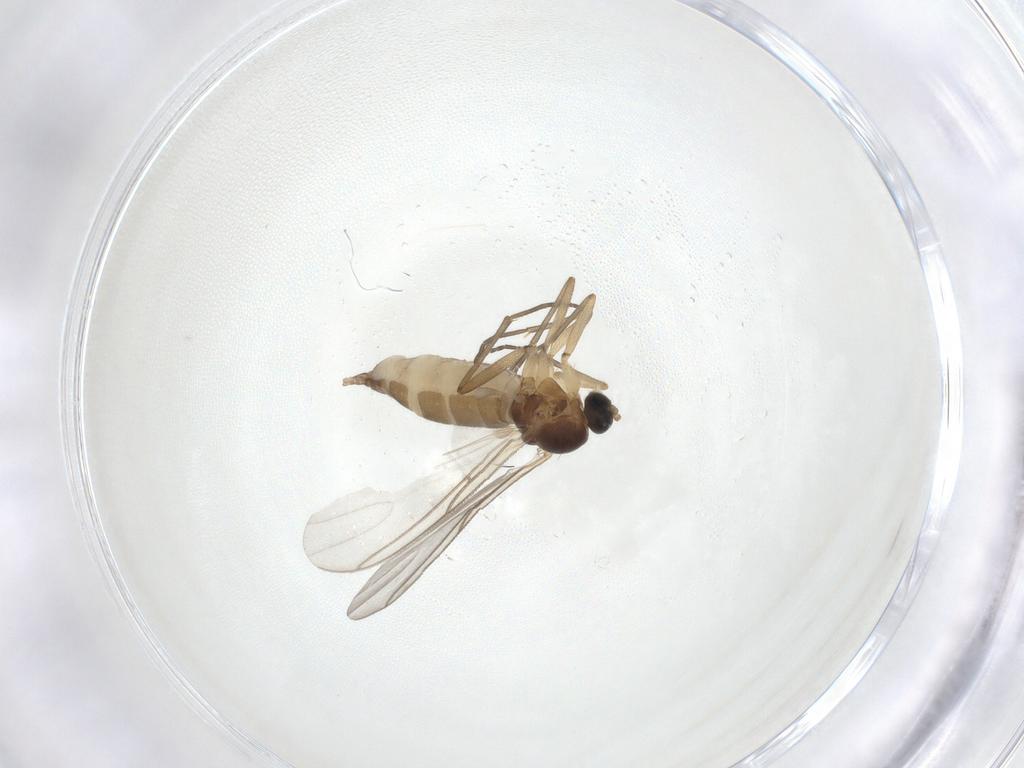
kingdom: Animalia
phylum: Arthropoda
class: Insecta
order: Diptera
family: Sciaridae
